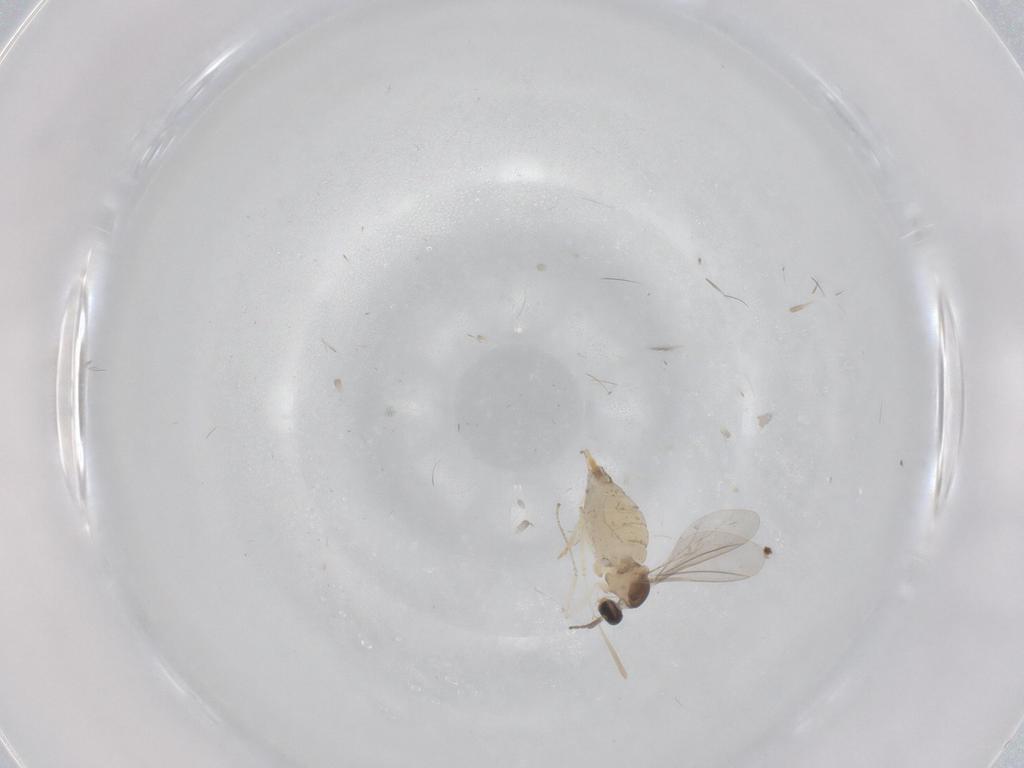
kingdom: Animalia
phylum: Arthropoda
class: Insecta
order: Diptera
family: Cecidomyiidae
